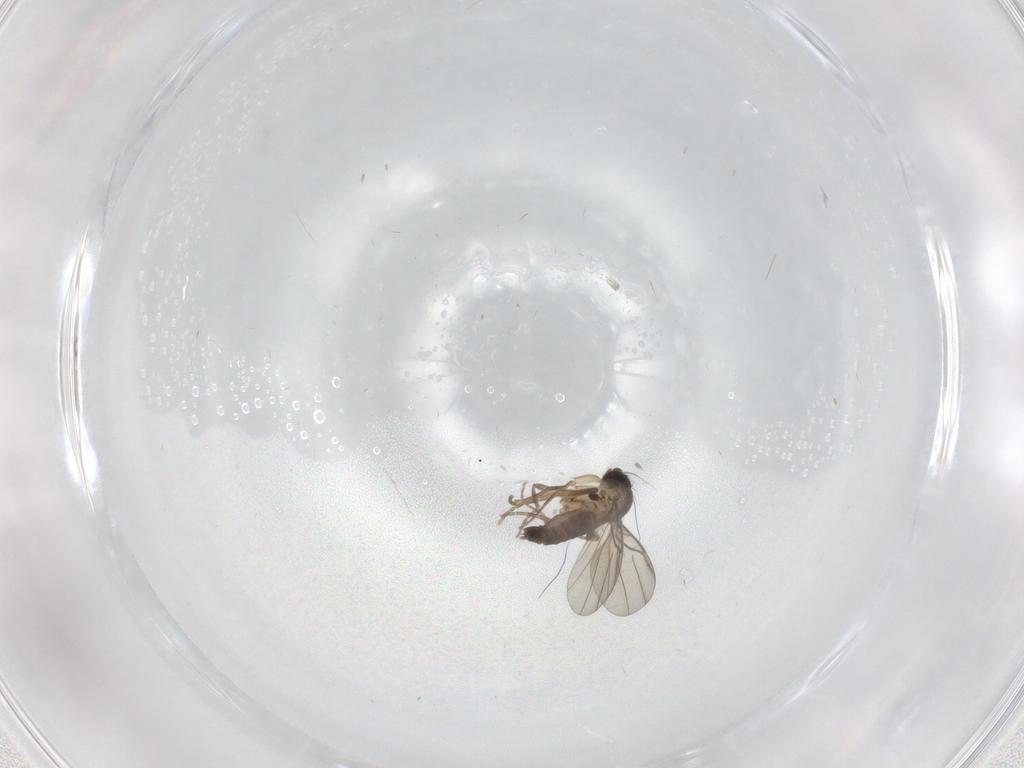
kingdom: Animalia
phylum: Arthropoda
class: Insecta
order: Diptera
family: Phoridae
